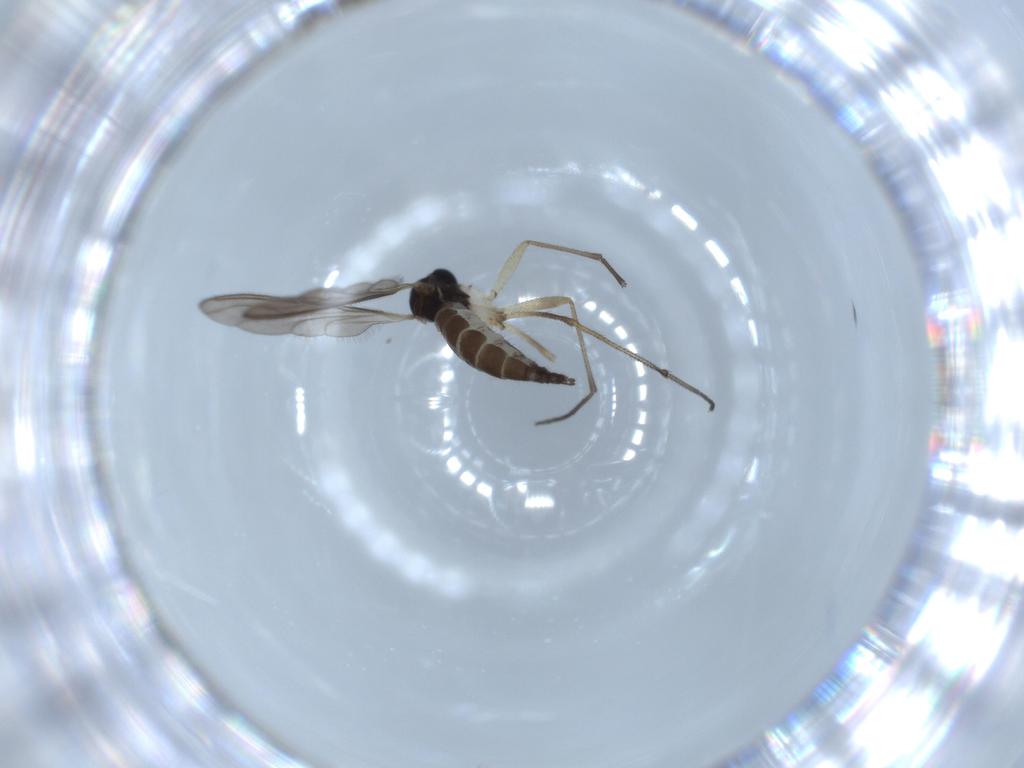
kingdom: Animalia
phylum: Arthropoda
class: Insecta
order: Diptera
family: Sciaridae
